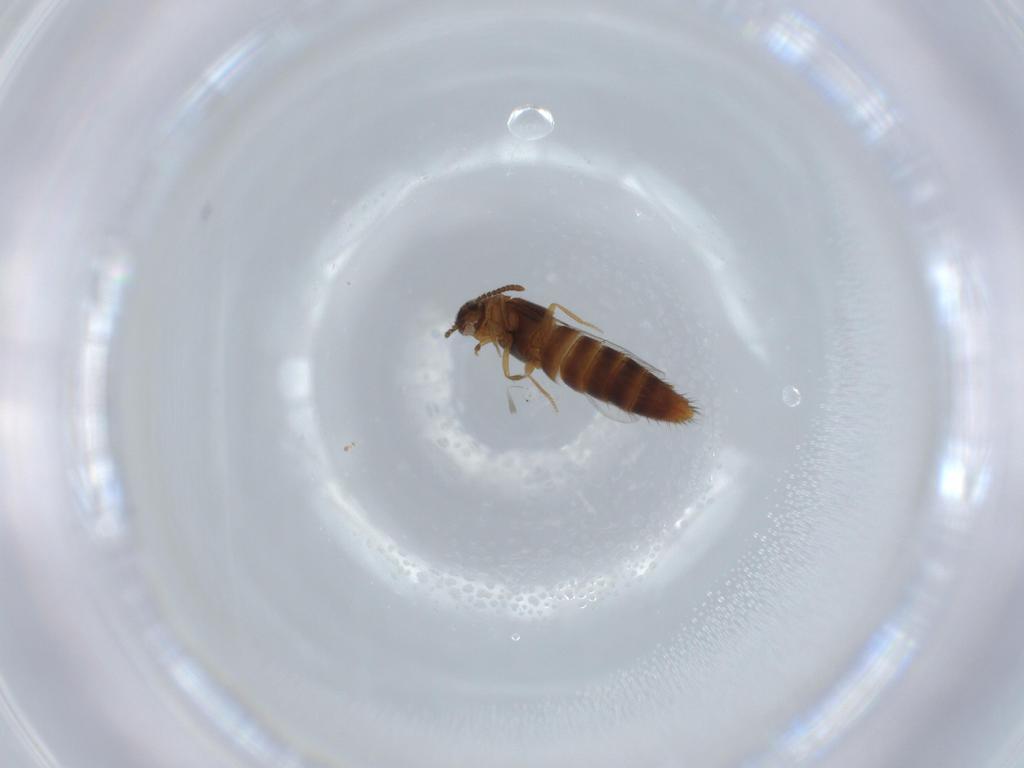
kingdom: Animalia
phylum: Arthropoda
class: Insecta
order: Coleoptera
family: Staphylinidae
